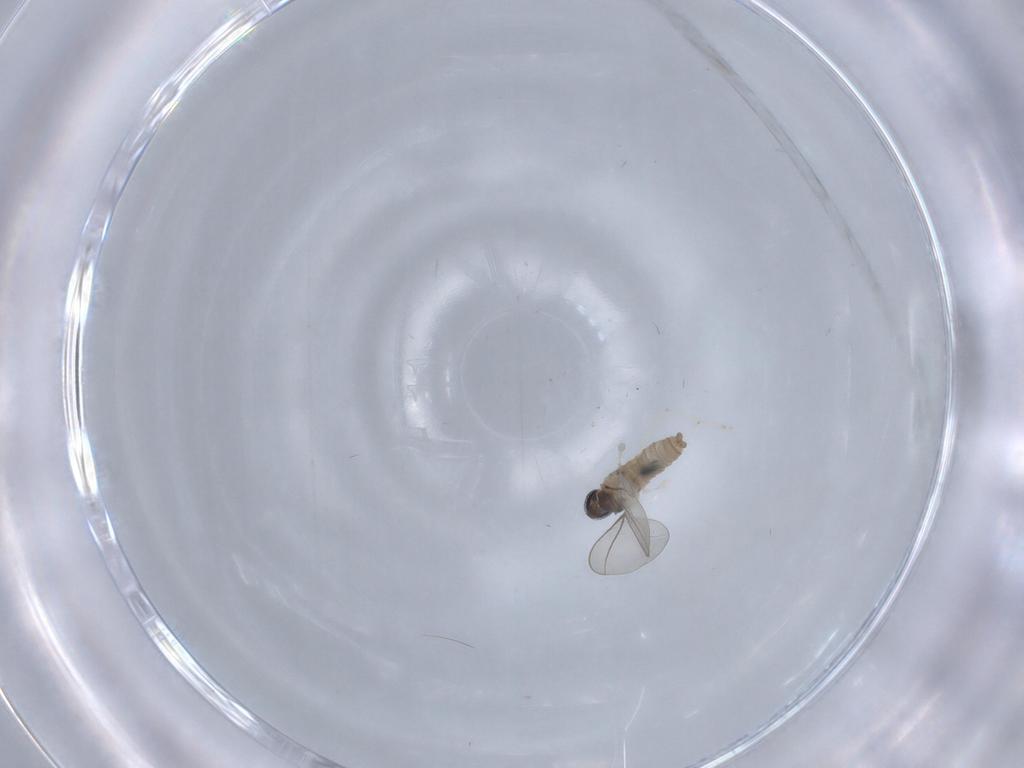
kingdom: Animalia
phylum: Arthropoda
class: Insecta
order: Diptera
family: Cecidomyiidae
